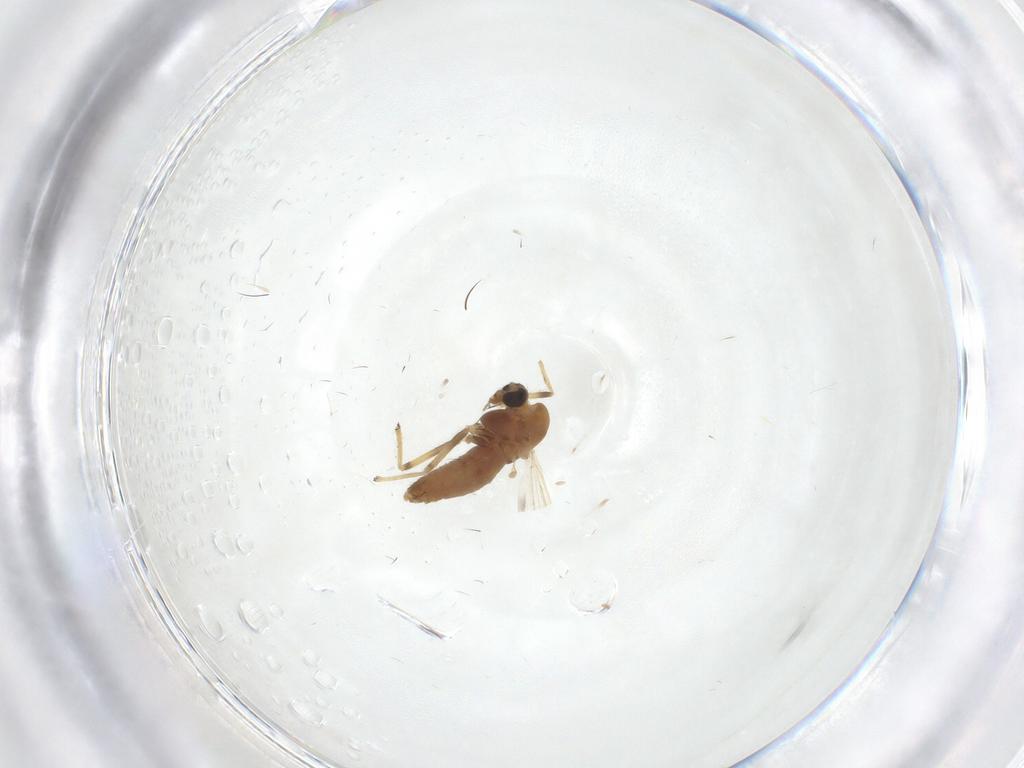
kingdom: Animalia
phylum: Arthropoda
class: Insecta
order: Diptera
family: Chironomidae
